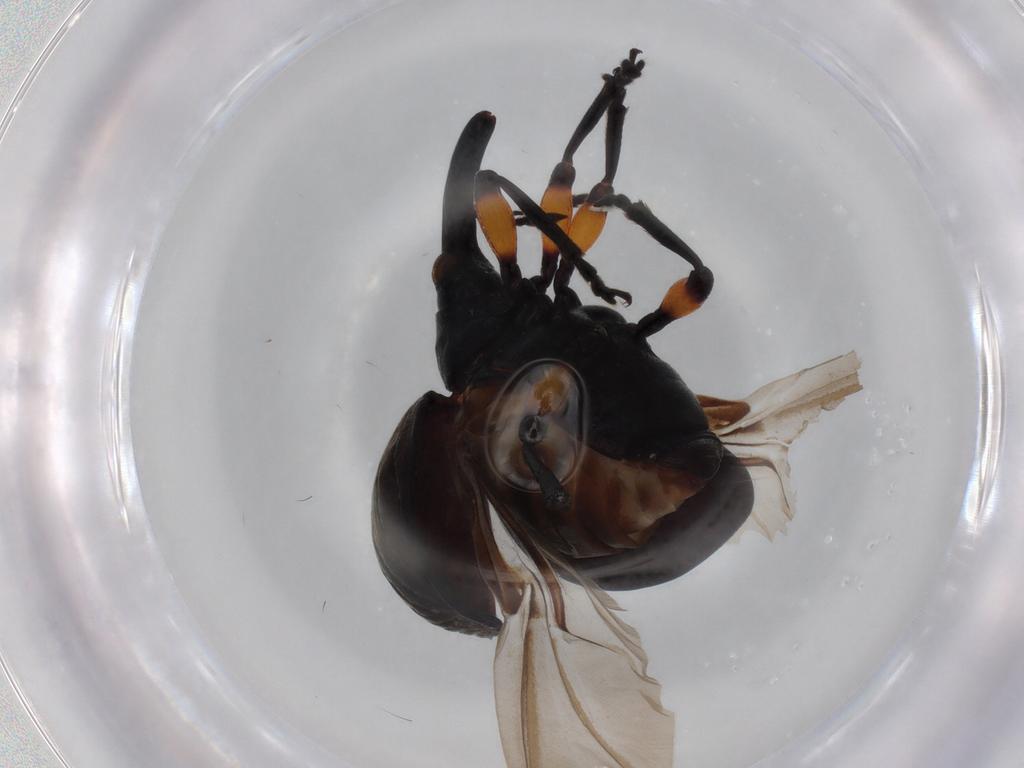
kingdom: Animalia
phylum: Arthropoda
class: Insecta
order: Coleoptera
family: Brentidae
